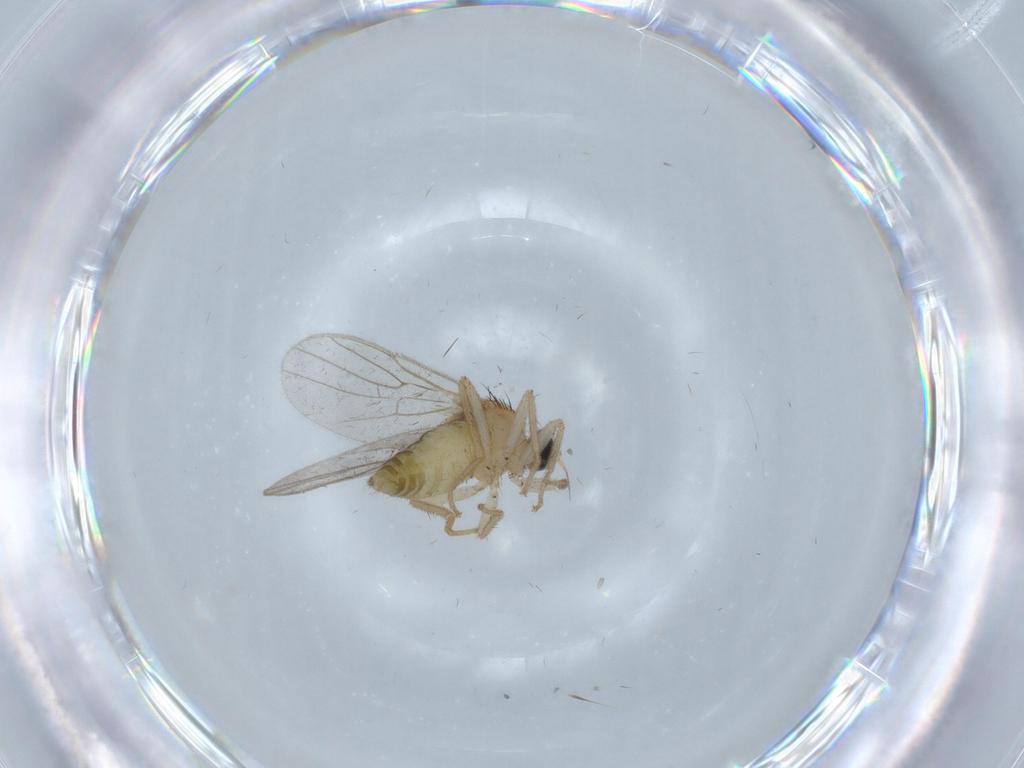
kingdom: Animalia
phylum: Arthropoda
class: Insecta
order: Diptera
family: Hybotidae
